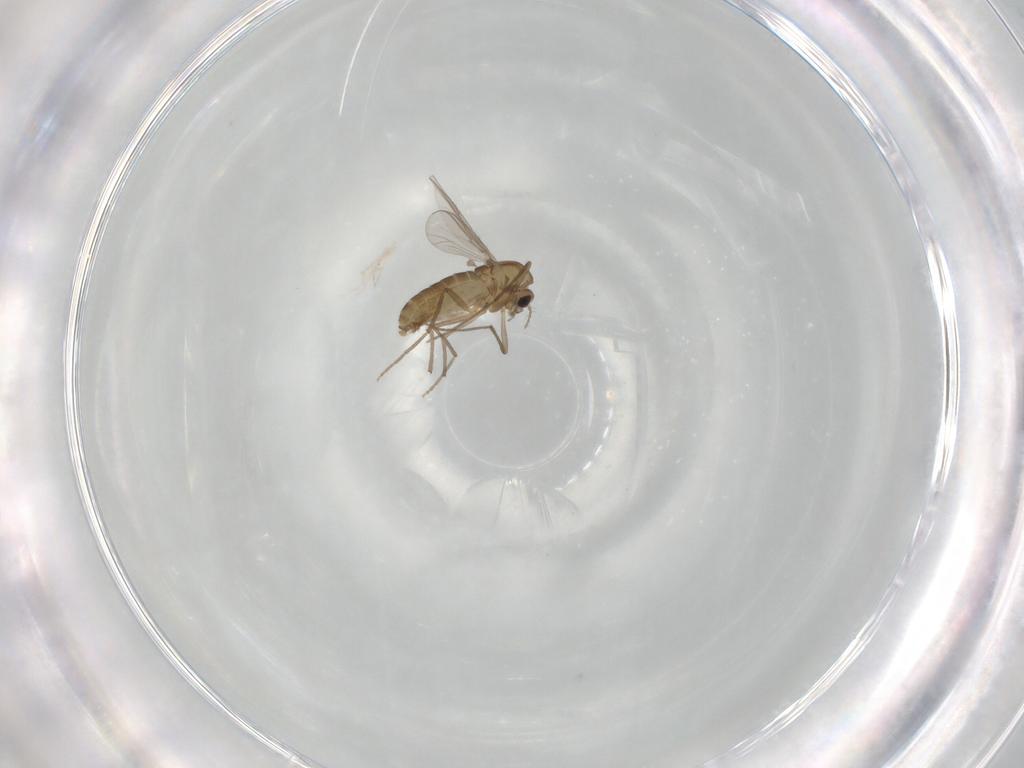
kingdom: Animalia
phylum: Arthropoda
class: Insecta
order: Diptera
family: Chironomidae
